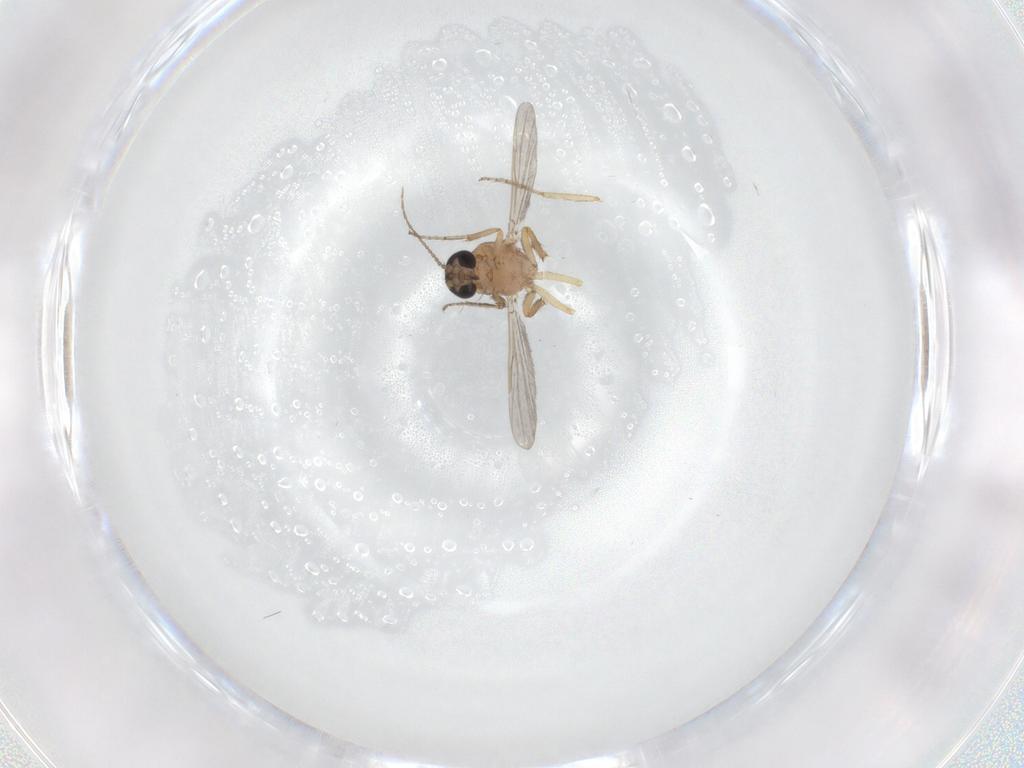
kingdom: Animalia
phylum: Arthropoda
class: Insecta
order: Diptera
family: Ceratopogonidae
